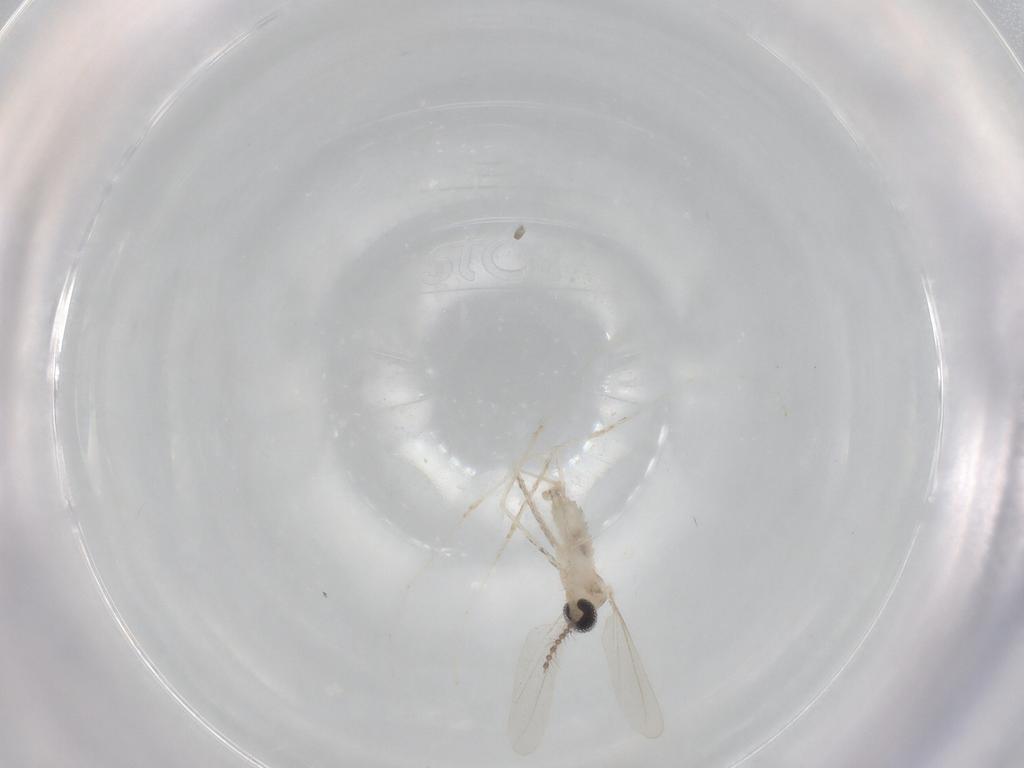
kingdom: Animalia
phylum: Arthropoda
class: Insecta
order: Diptera
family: Cecidomyiidae
